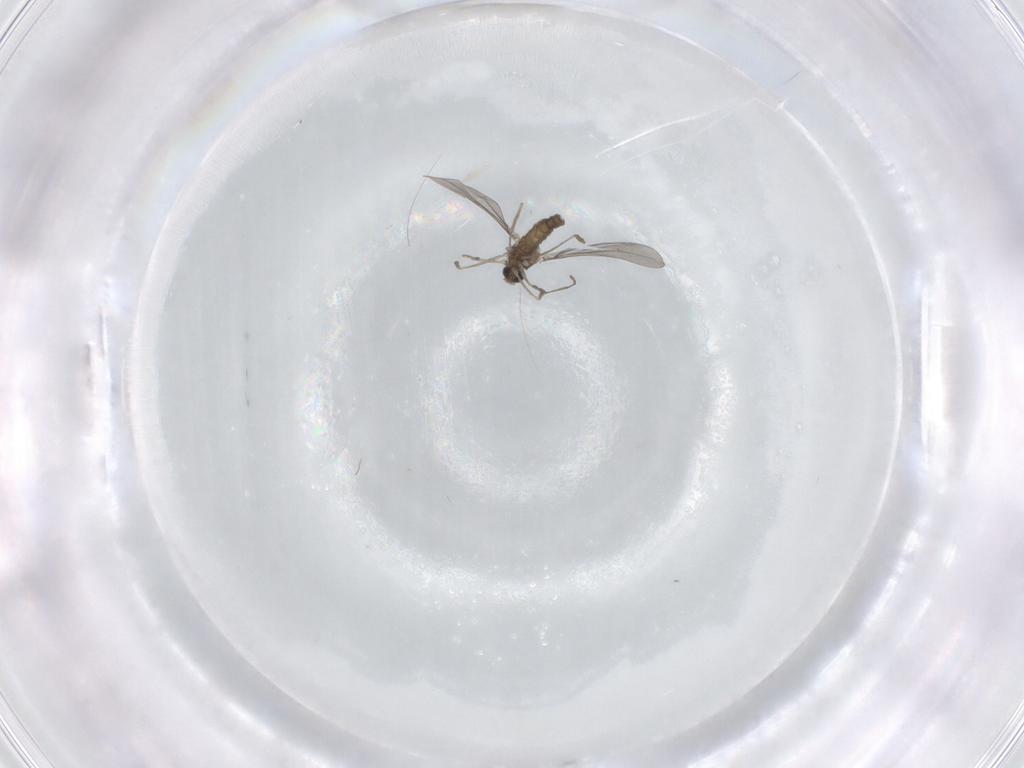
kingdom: Animalia
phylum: Arthropoda
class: Insecta
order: Diptera
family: Cecidomyiidae
